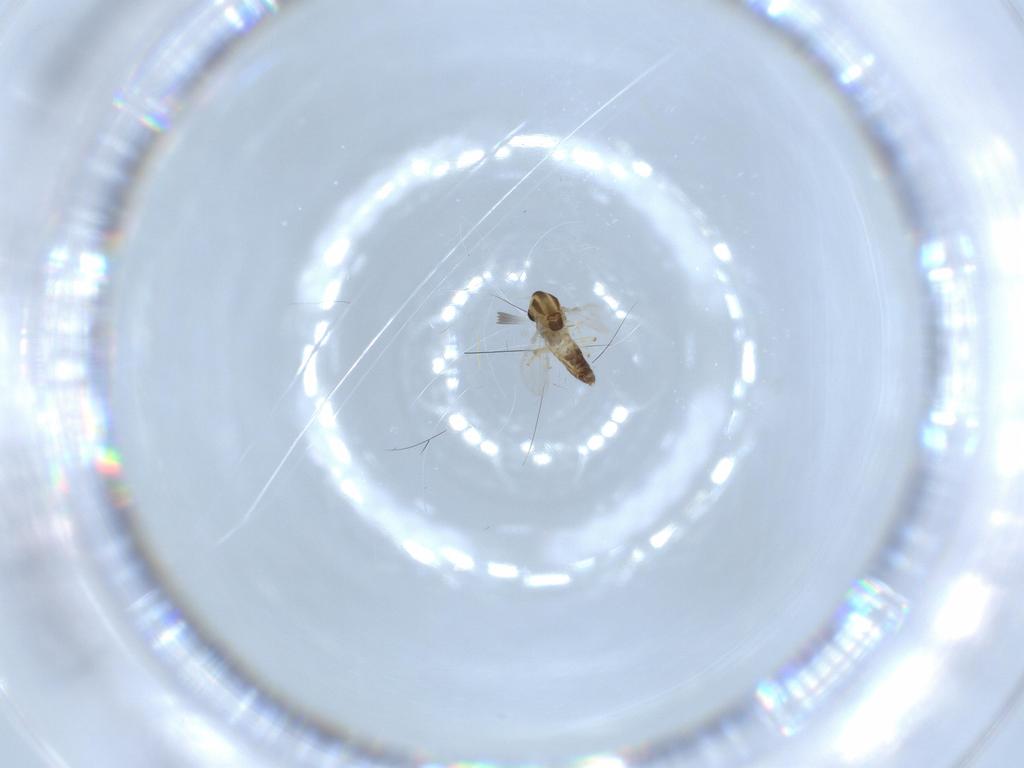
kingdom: Animalia
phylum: Arthropoda
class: Insecta
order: Diptera
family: Chironomidae
